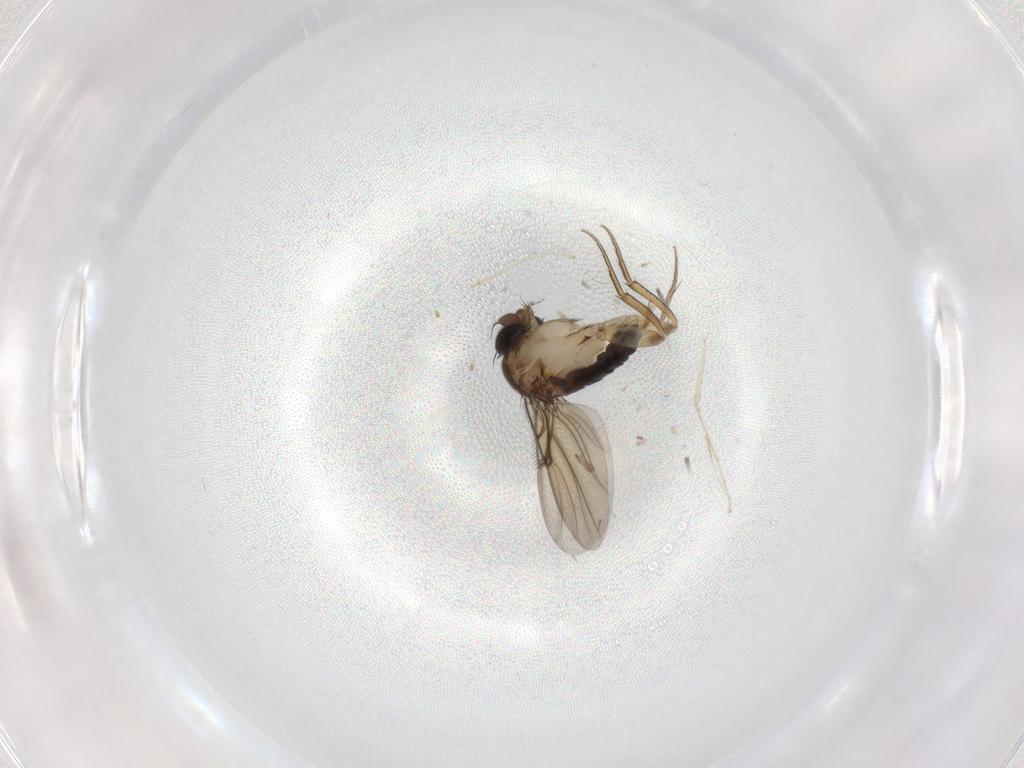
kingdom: Animalia
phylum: Arthropoda
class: Insecta
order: Diptera
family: Phoridae
